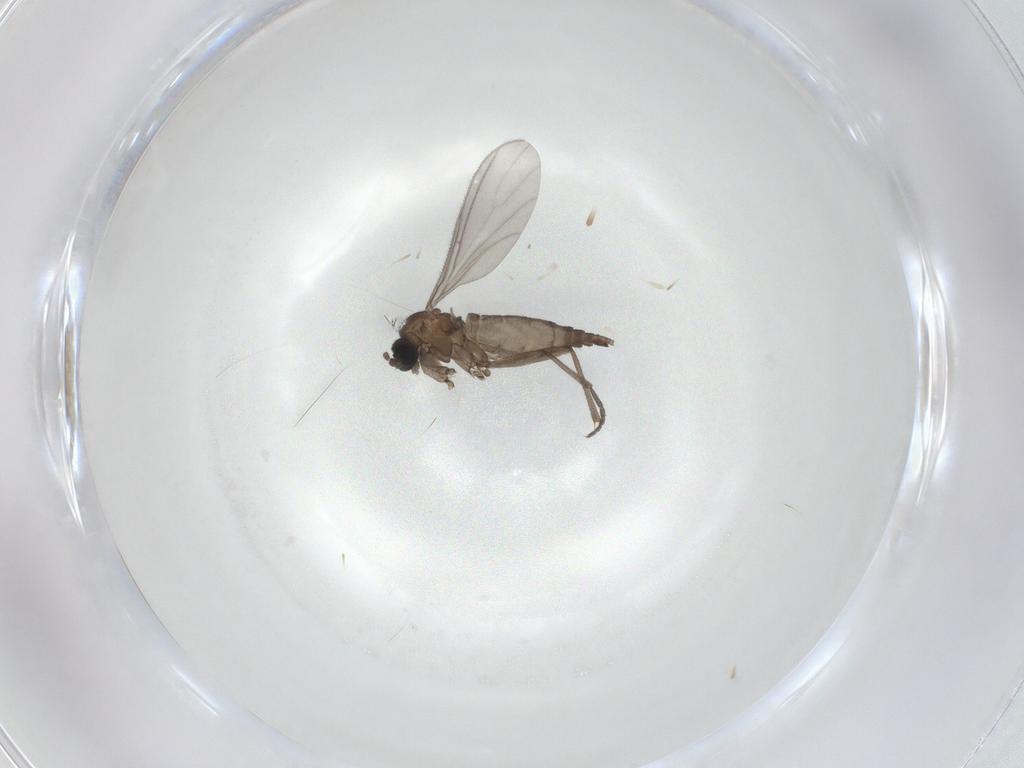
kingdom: Animalia
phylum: Arthropoda
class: Insecta
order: Diptera
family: Sciaridae
